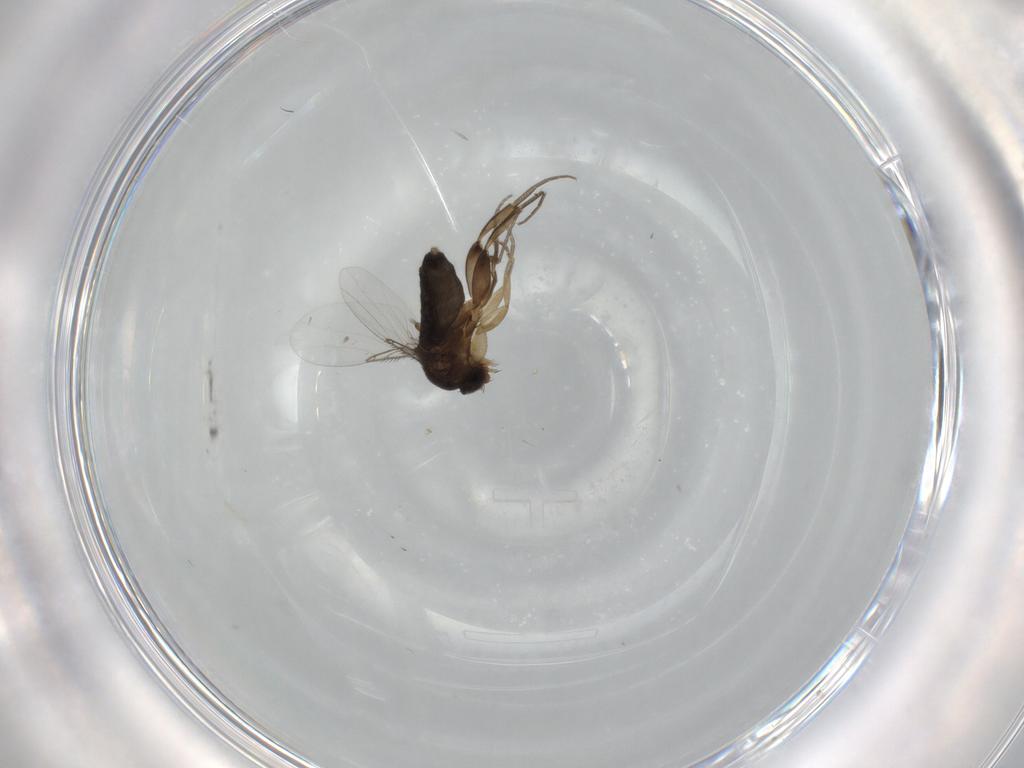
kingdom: Animalia
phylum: Arthropoda
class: Insecta
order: Diptera
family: Phoridae
